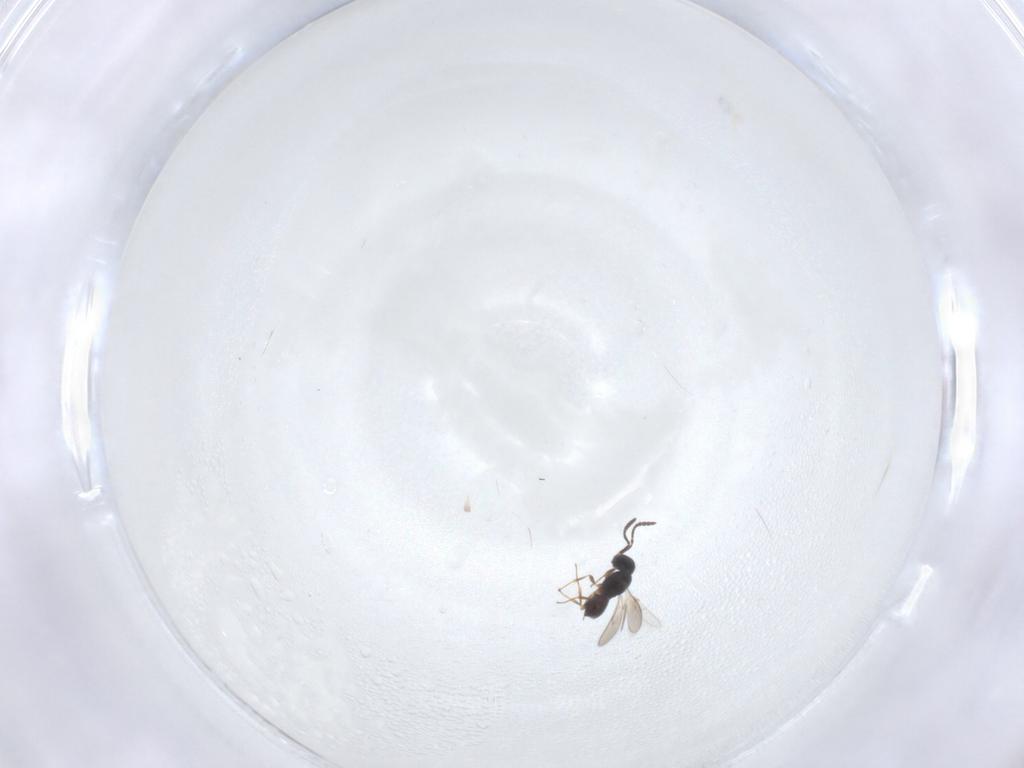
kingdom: Animalia
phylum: Arthropoda
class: Insecta
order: Hymenoptera
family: Scelionidae
